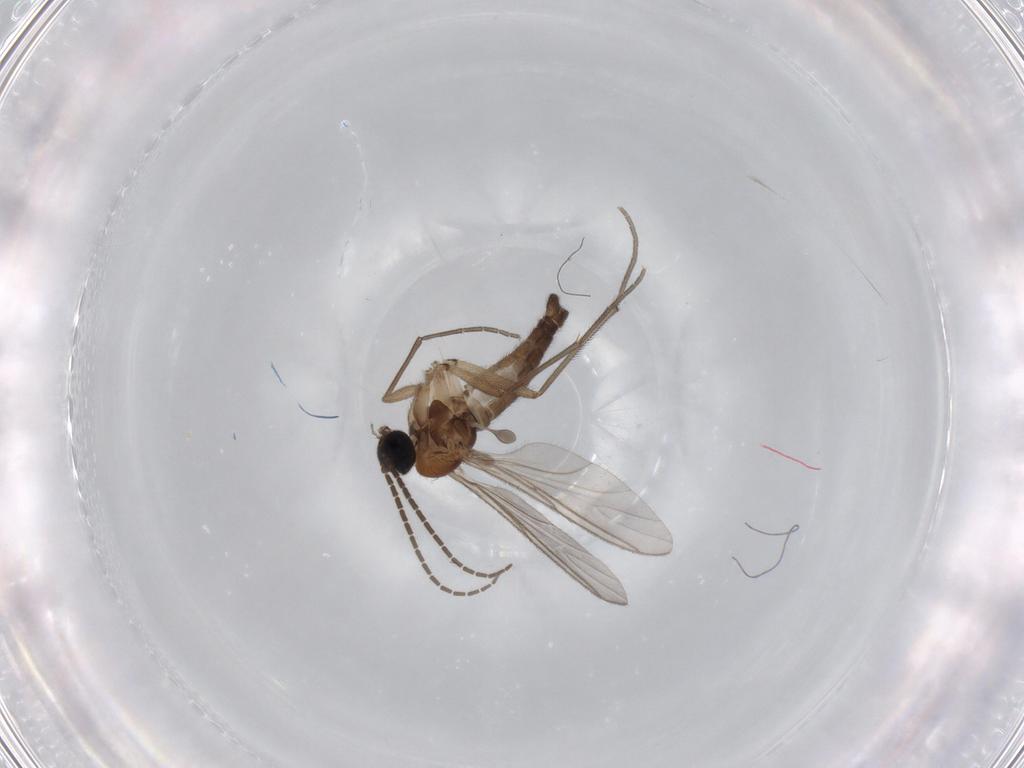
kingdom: Animalia
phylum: Arthropoda
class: Insecta
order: Diptera
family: Sciaridae
